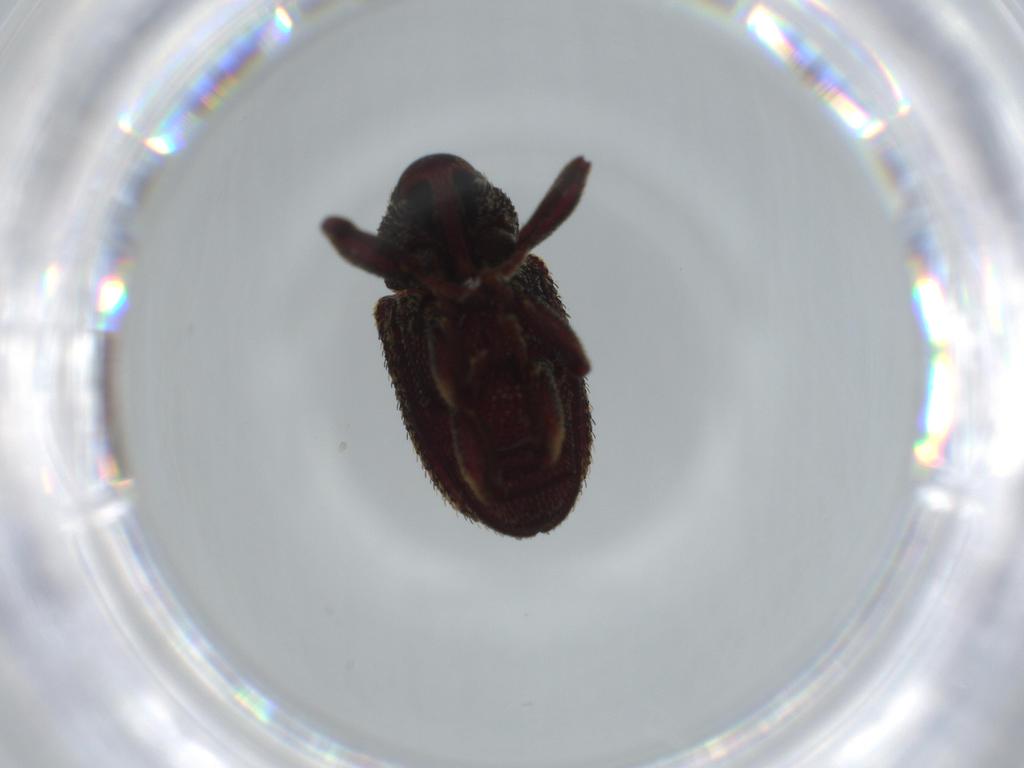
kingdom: Animalia
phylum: Arthropoda
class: Insecta
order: Coleoptera
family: Curculionidae
